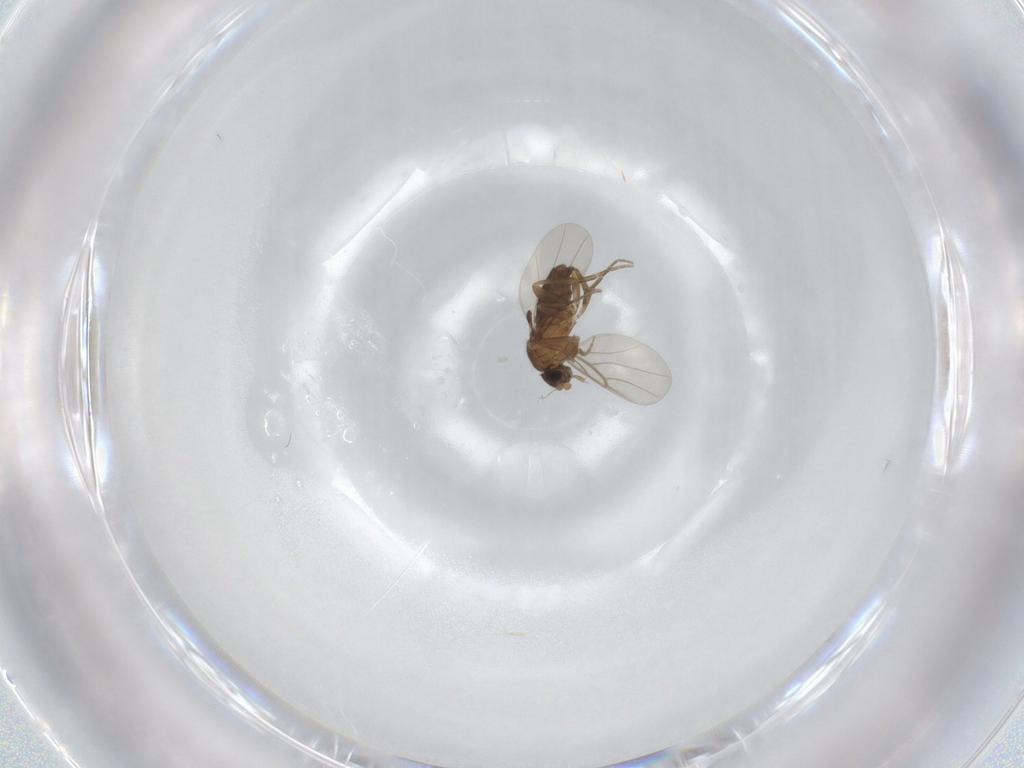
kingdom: Animalia
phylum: Arthropoda
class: Insecta
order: Diptera
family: Phoridae
